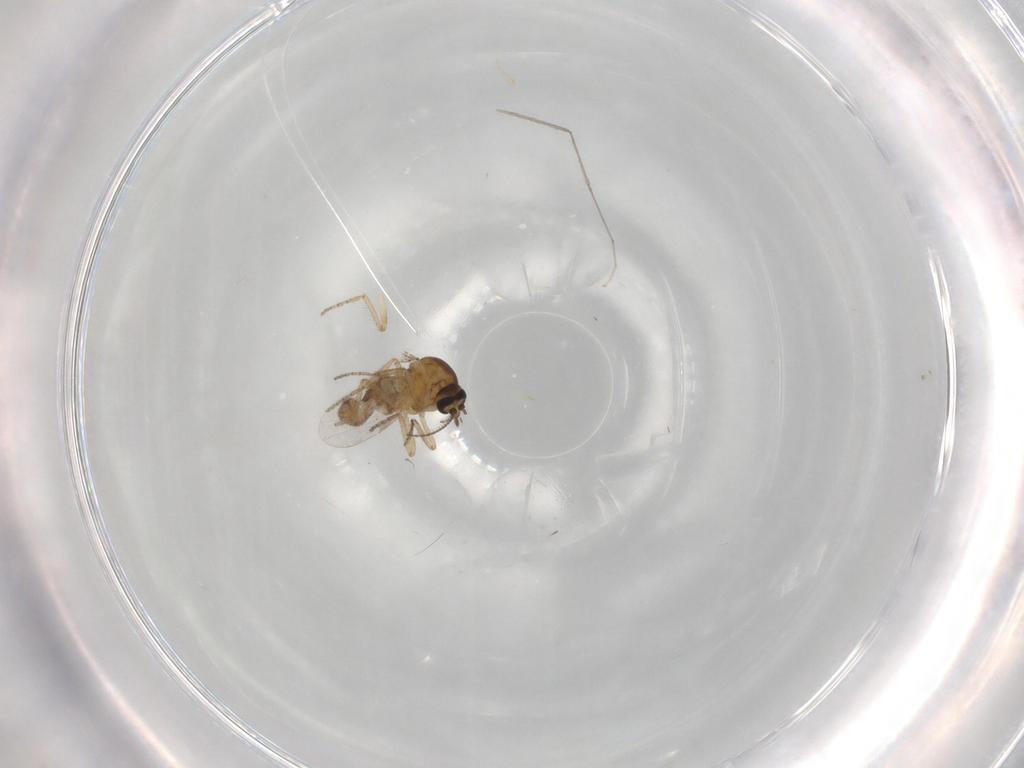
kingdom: Animalia
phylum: Arthropoda
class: Insecta
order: Diptera
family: Ceratopogonidae
